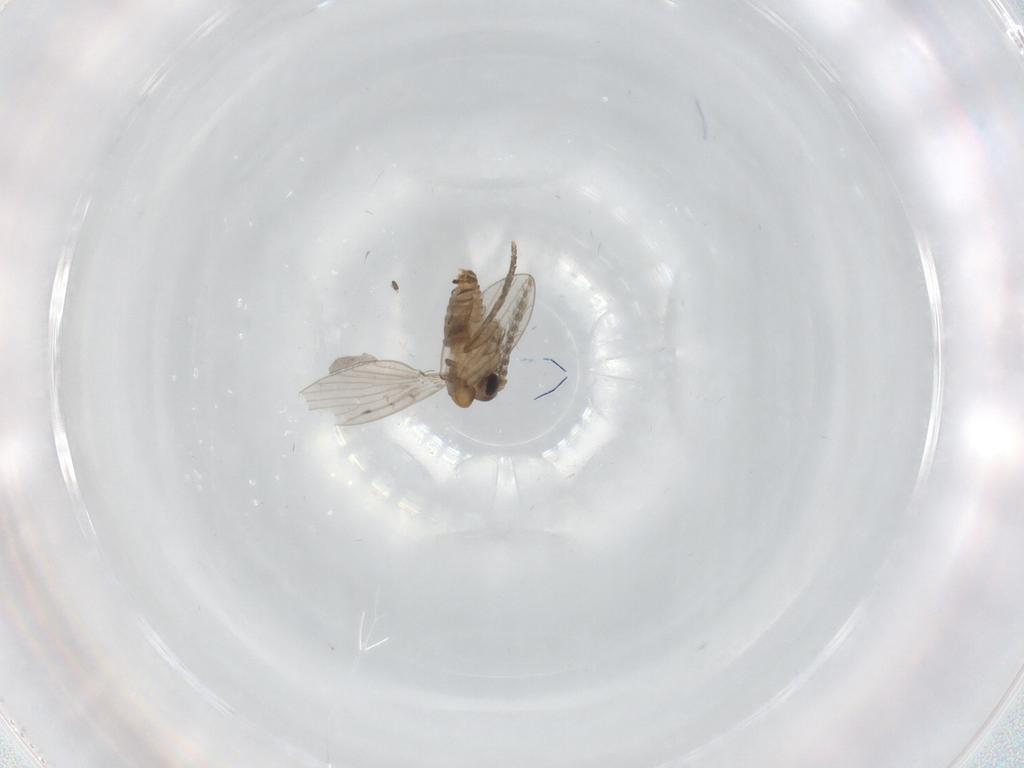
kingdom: Animalia
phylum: Arthropoda
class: Insecta
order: Diptera
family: Psychodidae
